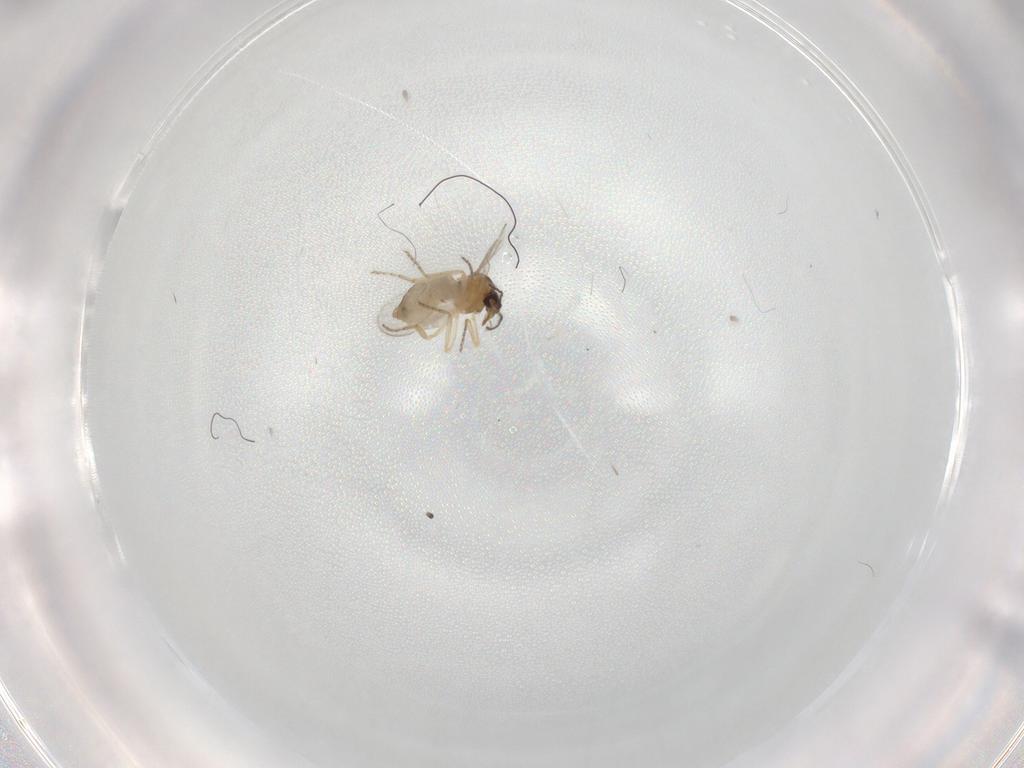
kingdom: Animalia
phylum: Arthropoda
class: Insecta
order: Diptera
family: Ceratopogonidae
